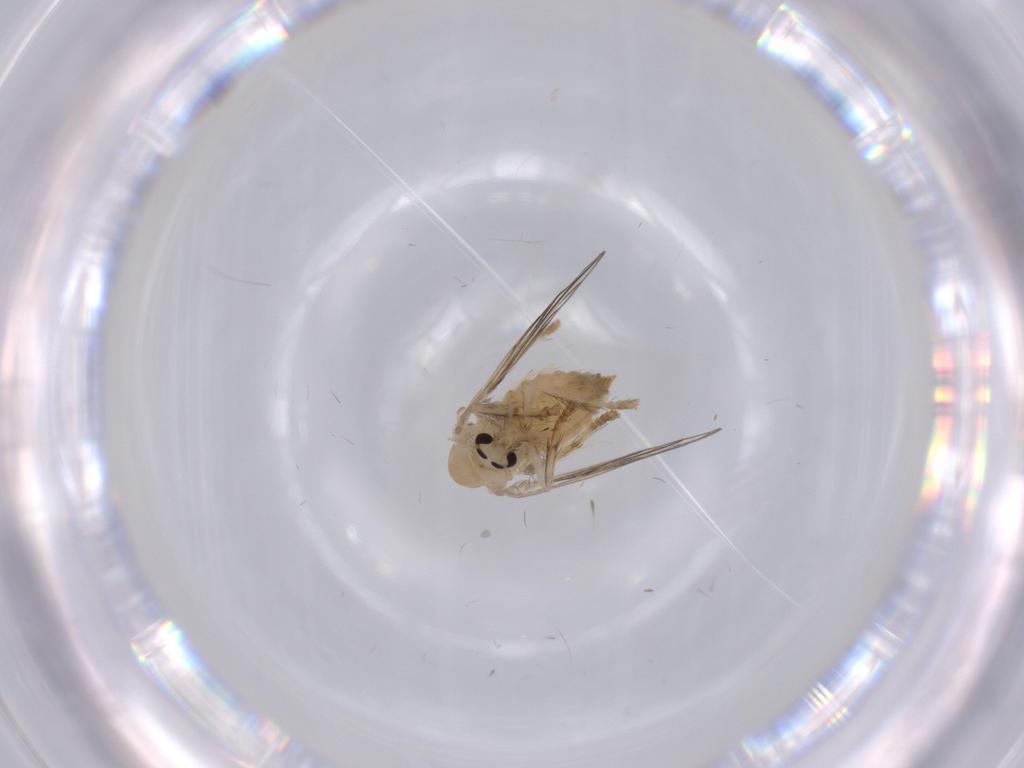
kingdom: Animalia
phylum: Arthropoda
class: Insecta
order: Diptera
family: Psychodidae
